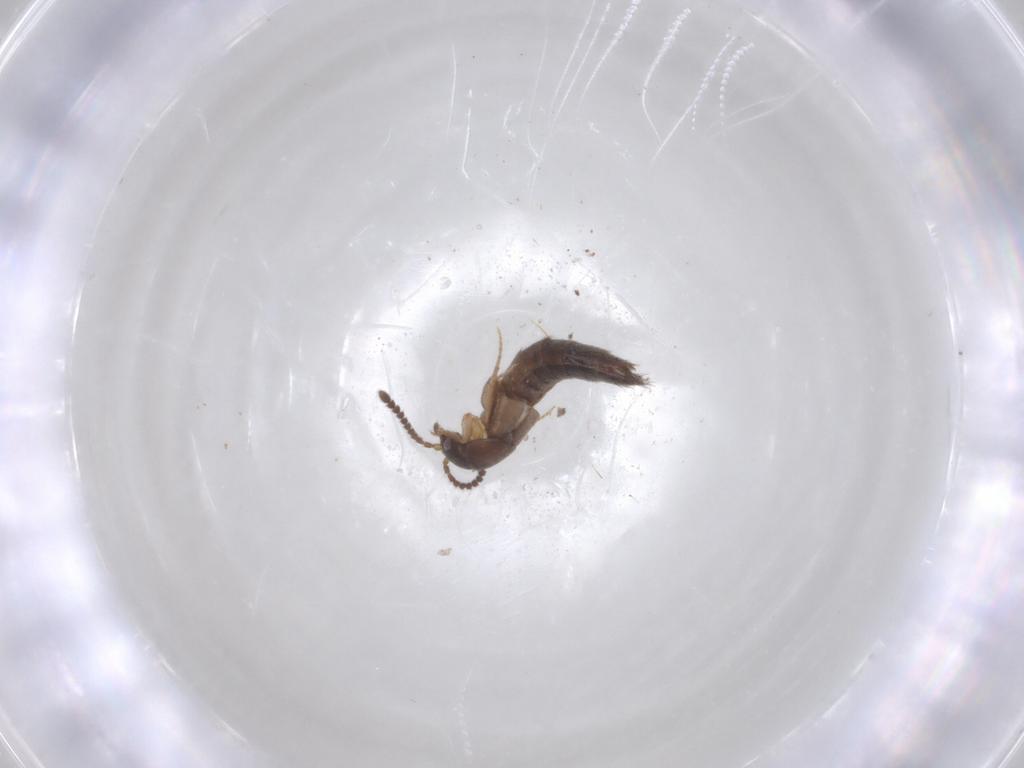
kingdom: Animalia
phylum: Arthropoda
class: Insecta
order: Coleoptera
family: Staphylinidae
